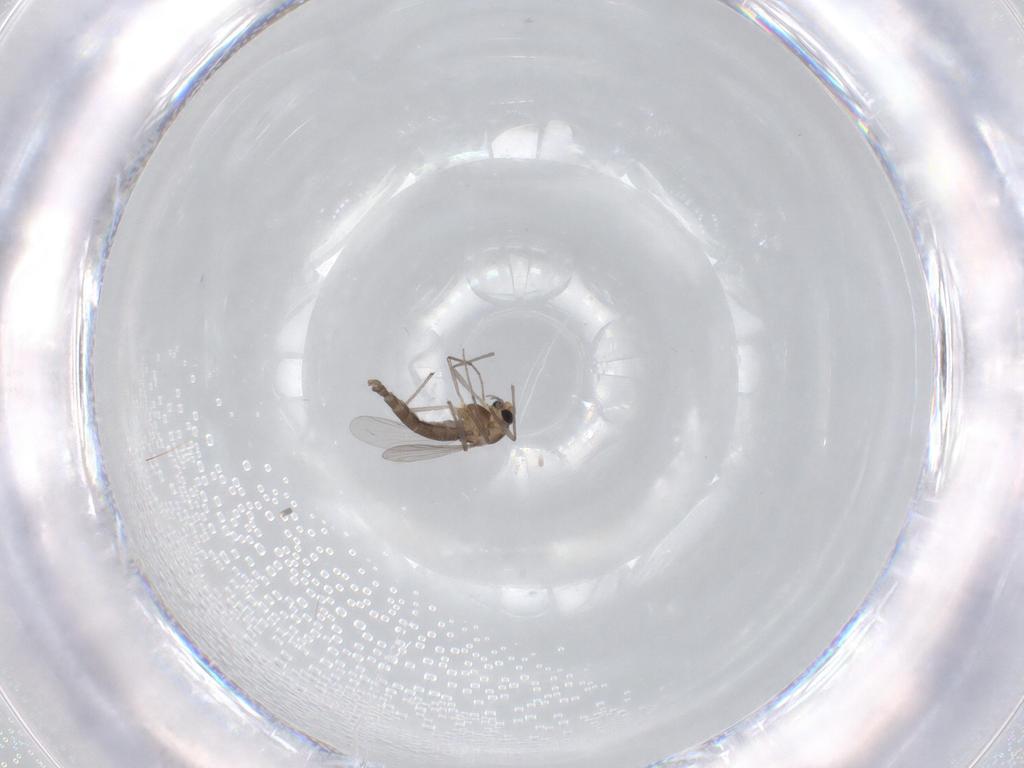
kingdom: Animalia
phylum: Arthropoda
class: Insecta
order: Diptera
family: Chironomidae
